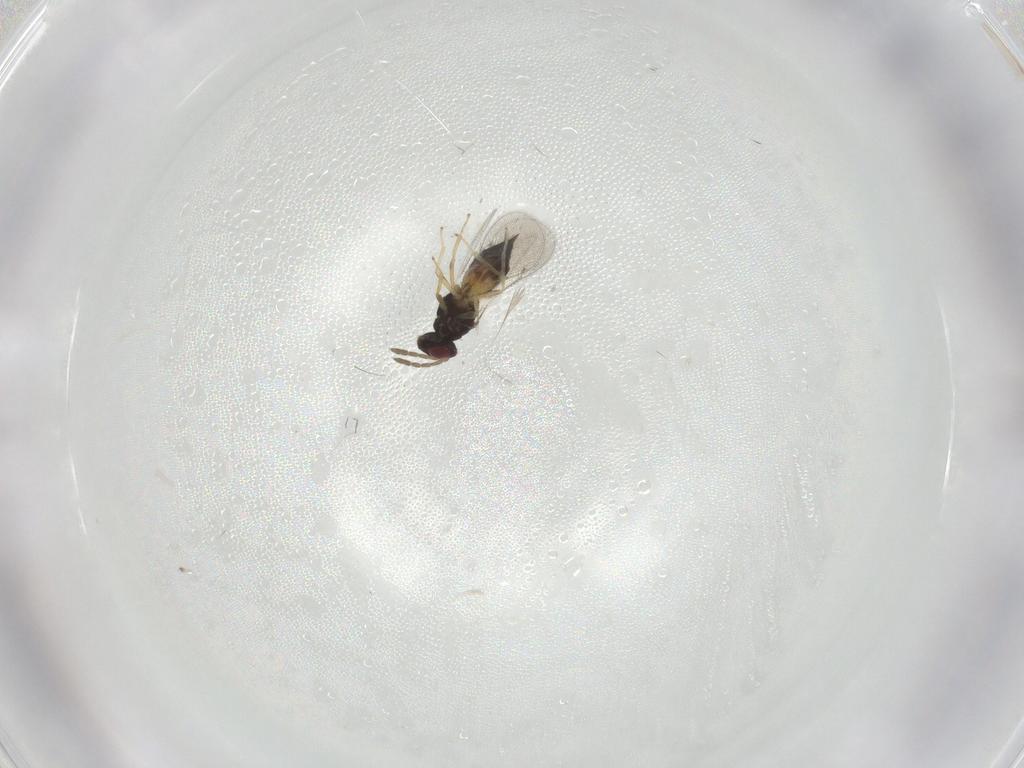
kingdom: Animalia
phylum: Arthropoda
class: Insecta
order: Hymenoptera
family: Eulophidae
